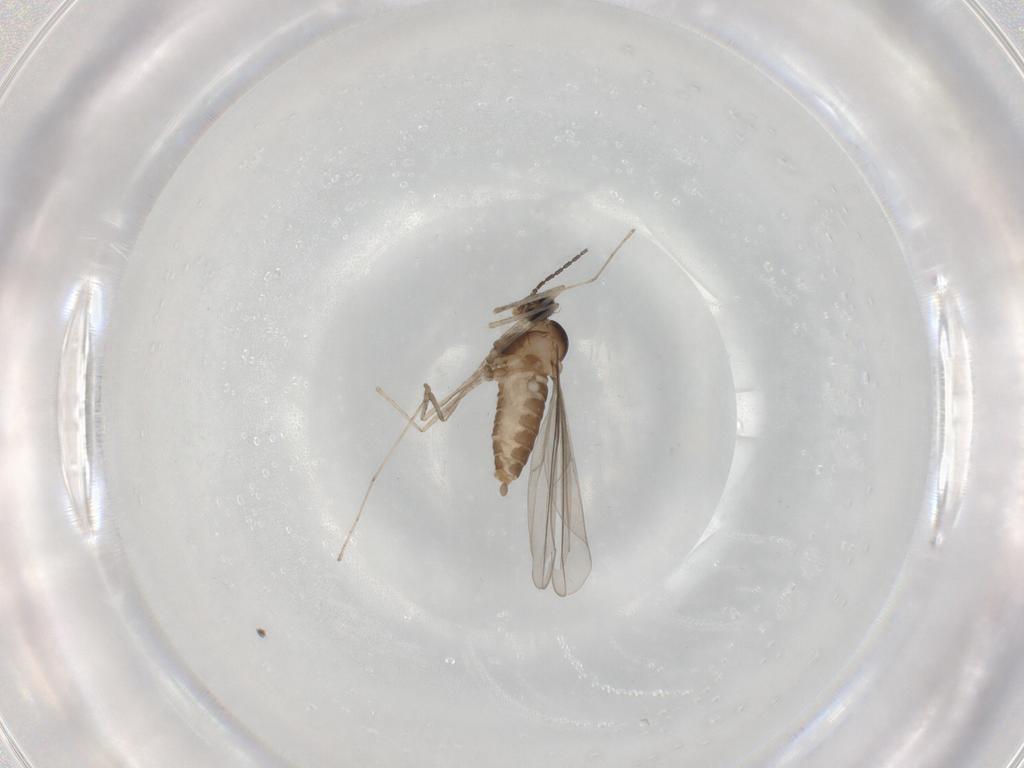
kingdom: Animalia
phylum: Arthropoda
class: Insecta
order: Diptera
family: Cecidomyiidae
